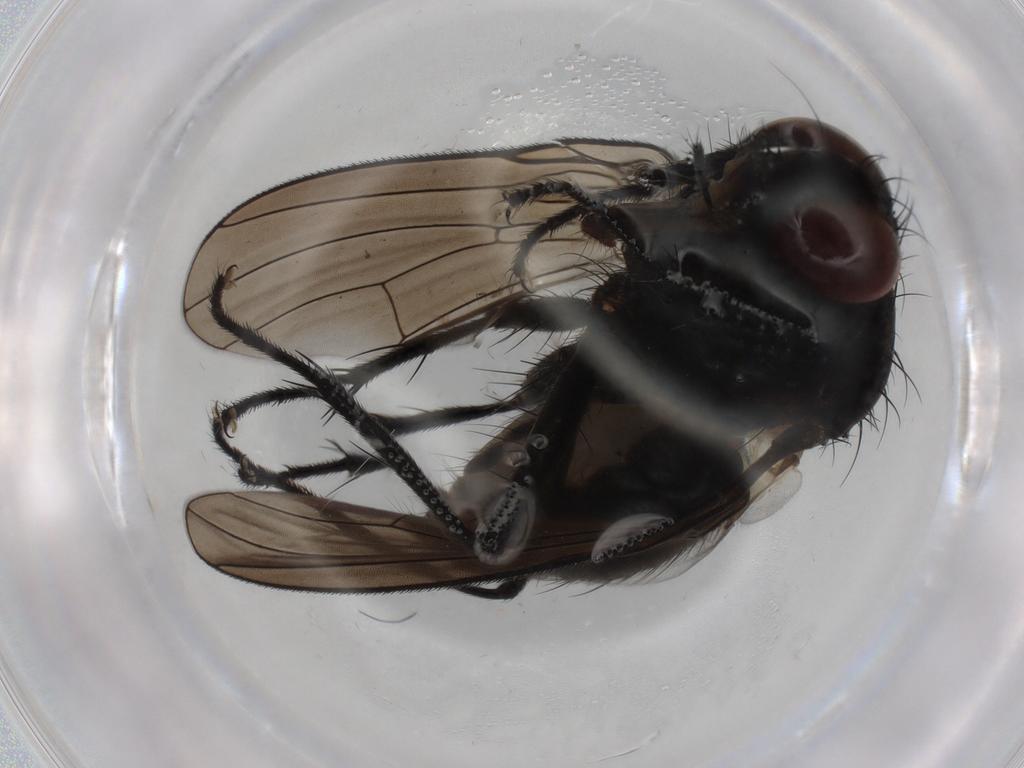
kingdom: Animalia
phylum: Arthropoda
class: Insecta
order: Diptera
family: Muscidae
